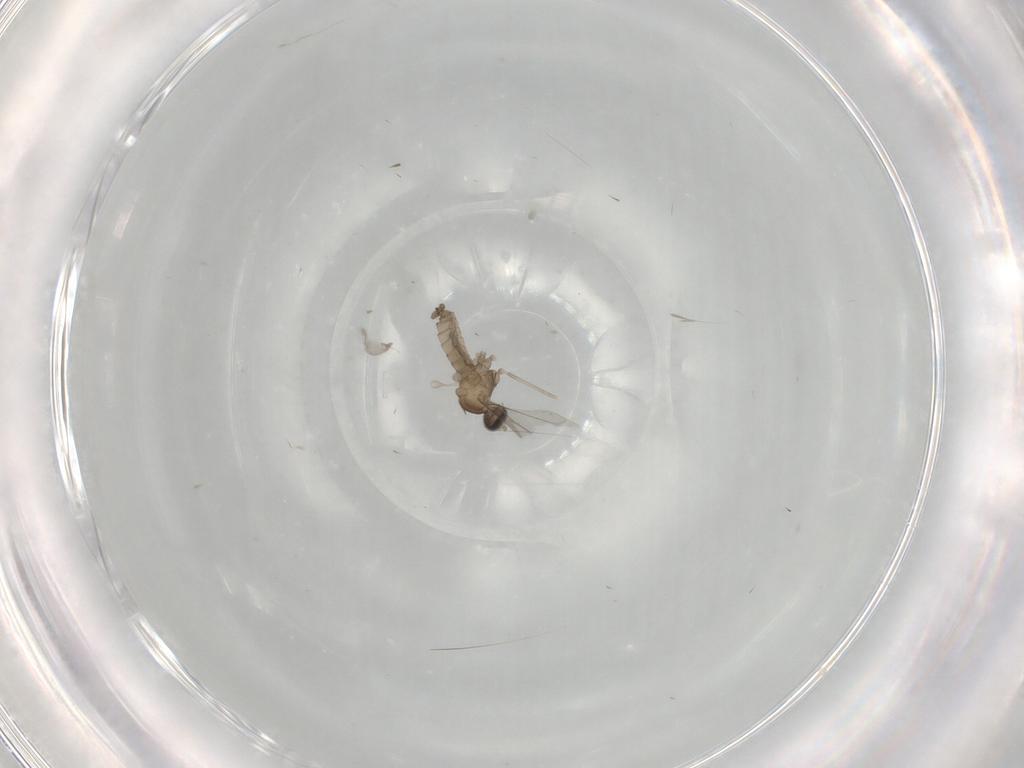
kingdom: Animalia
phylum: Arthropoda
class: Insecta
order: Diptera
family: Cecidomyiidae
